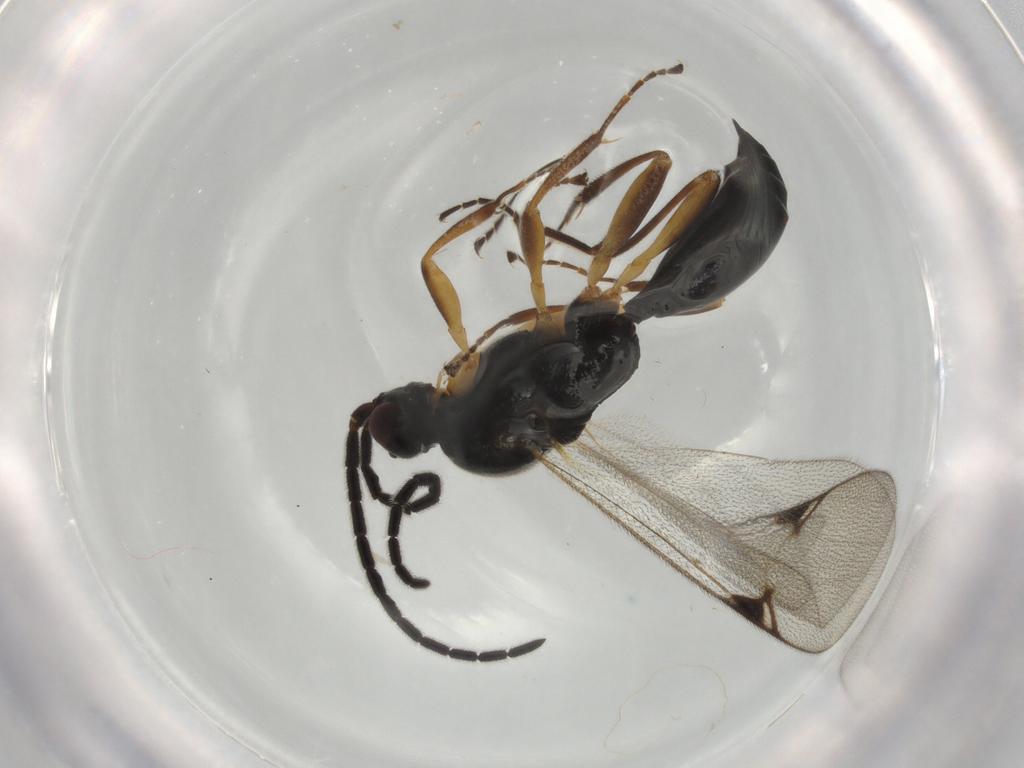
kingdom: Animalia
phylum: Arthropoda
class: Insecta
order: Hymenoptera
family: Proctotrupidae
